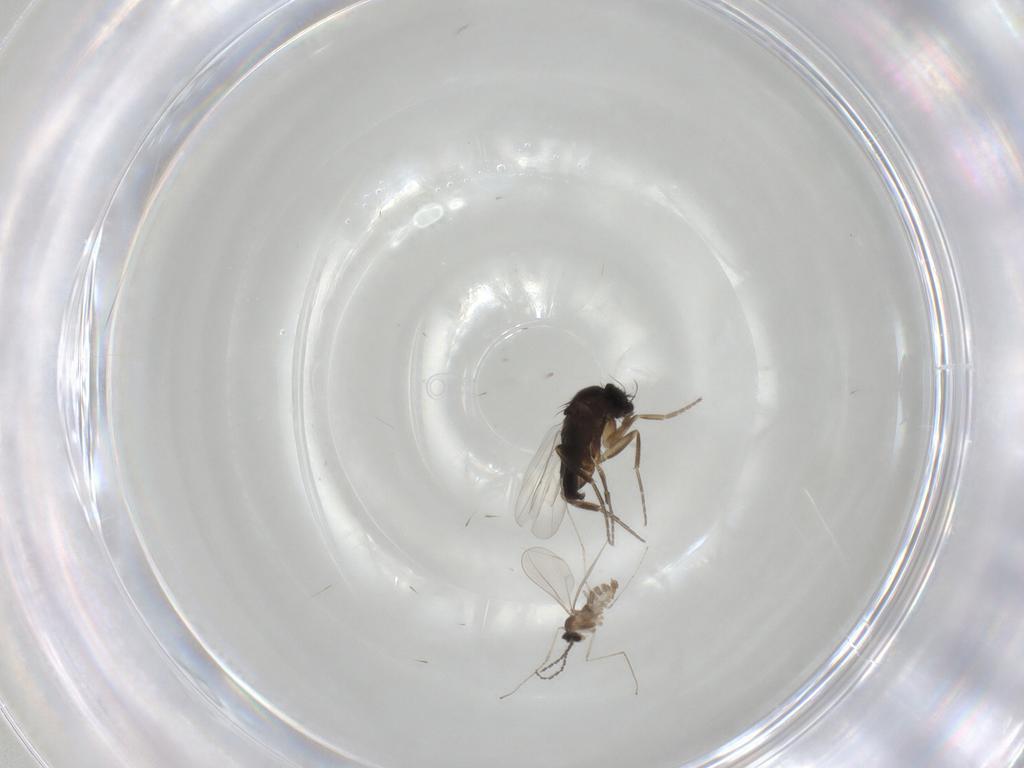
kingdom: Animalia
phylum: Arthropoda
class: Insecta
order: Diptera
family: Phoridae
